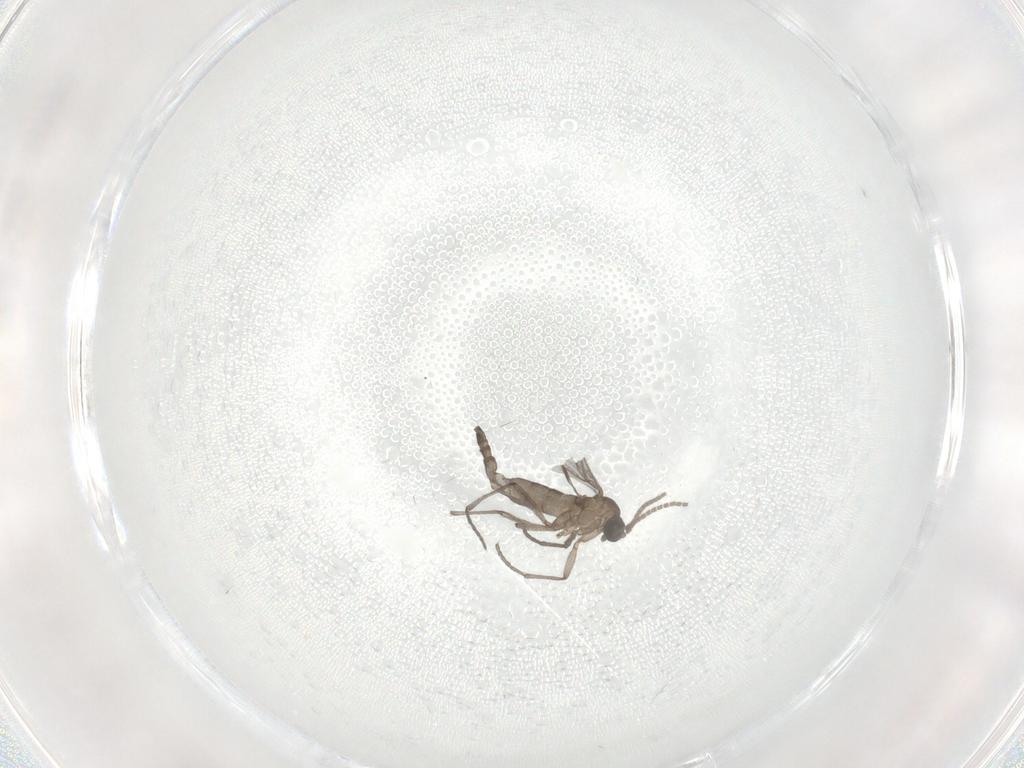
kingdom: Animalia
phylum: Arthropoda
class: Insecta
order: Diptera
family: Sciaridae
